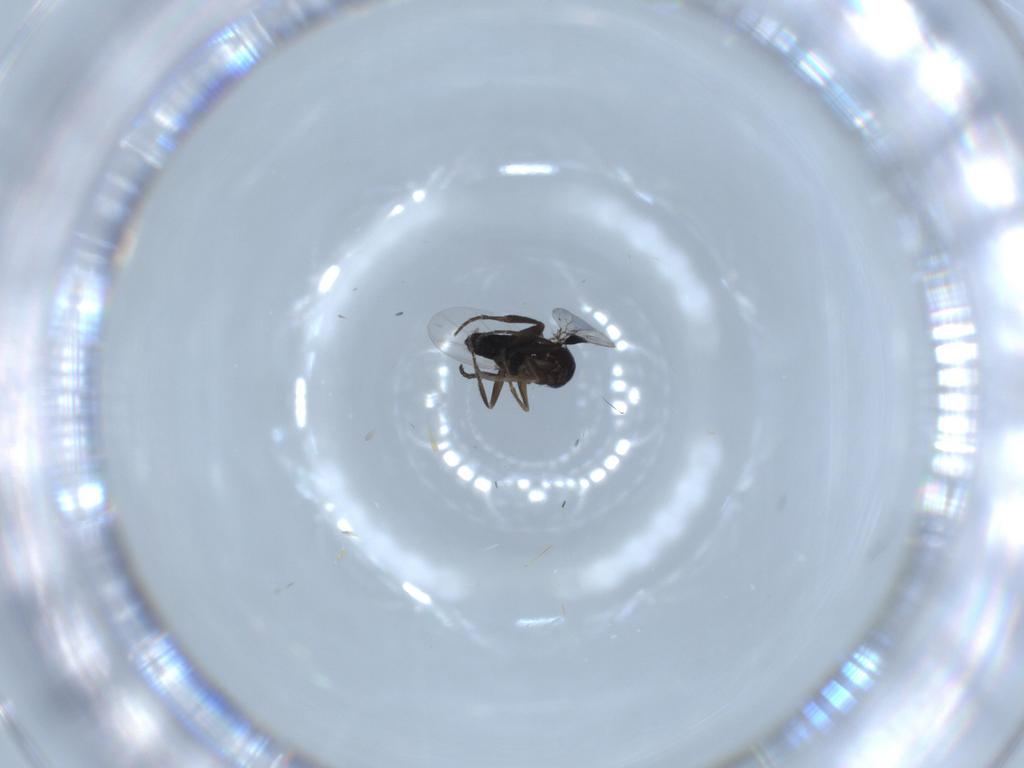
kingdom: Animalia
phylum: Arthropoda
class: Insecta
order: Diptera
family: Phoridae
